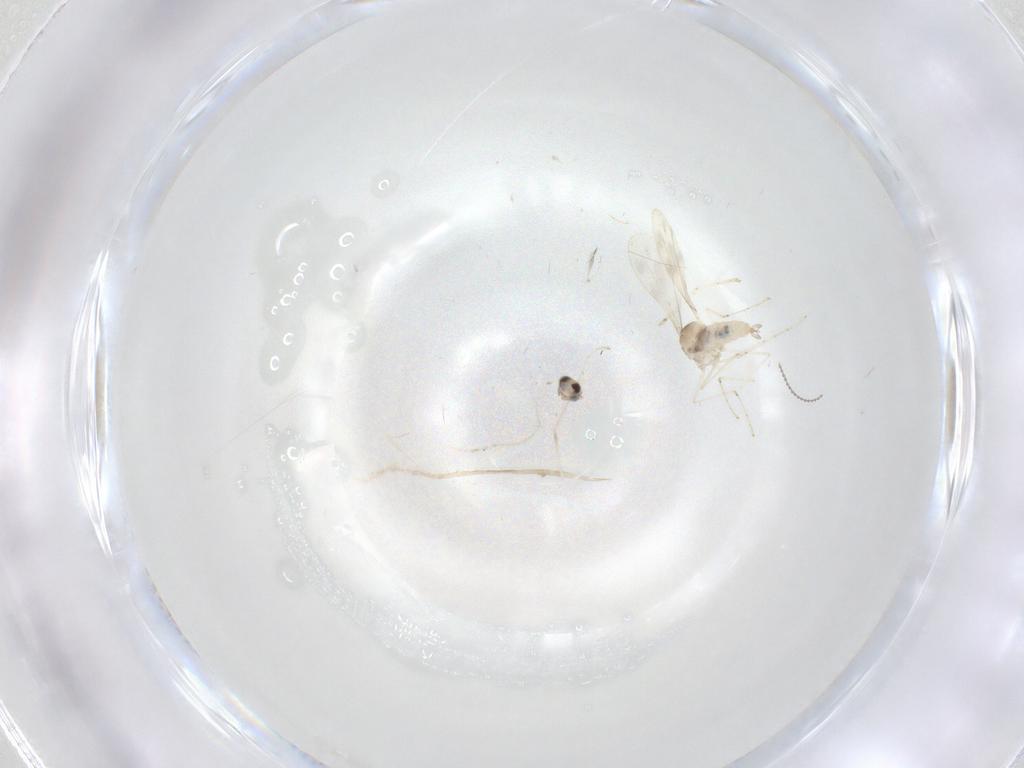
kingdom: Animalia
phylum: Arthropoda
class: Insecta
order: Diptera
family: Cecidomyiidae
